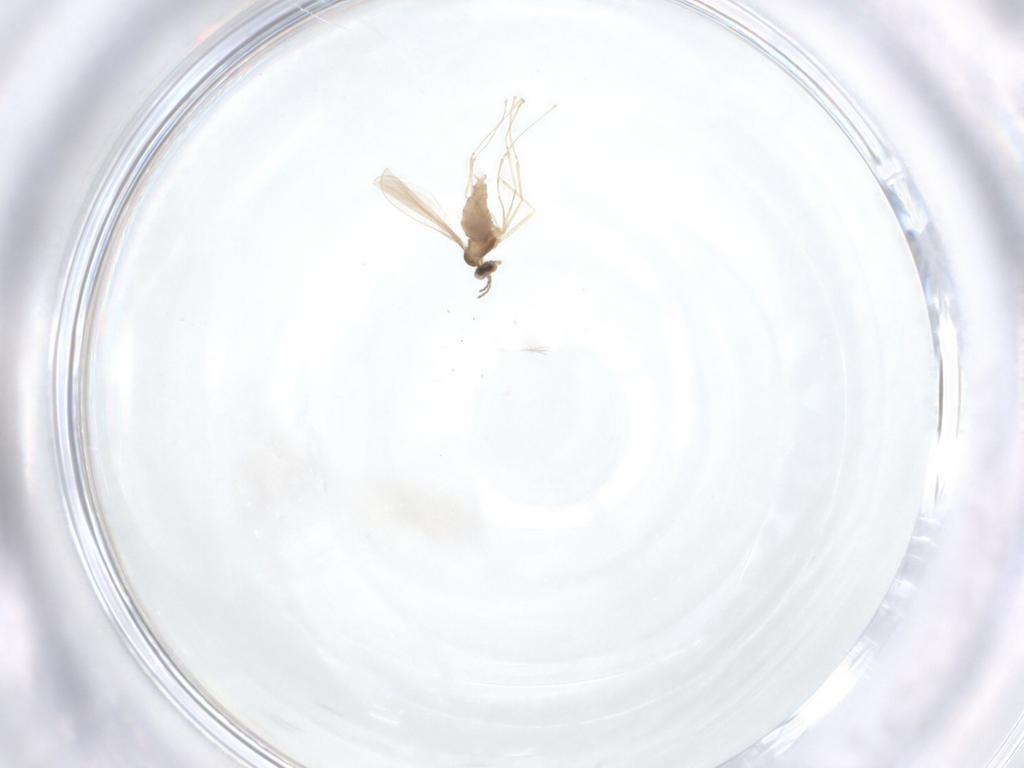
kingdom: Animalia
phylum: Arthropoda
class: Insecta
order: Diptera
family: Cecidomyiidae
